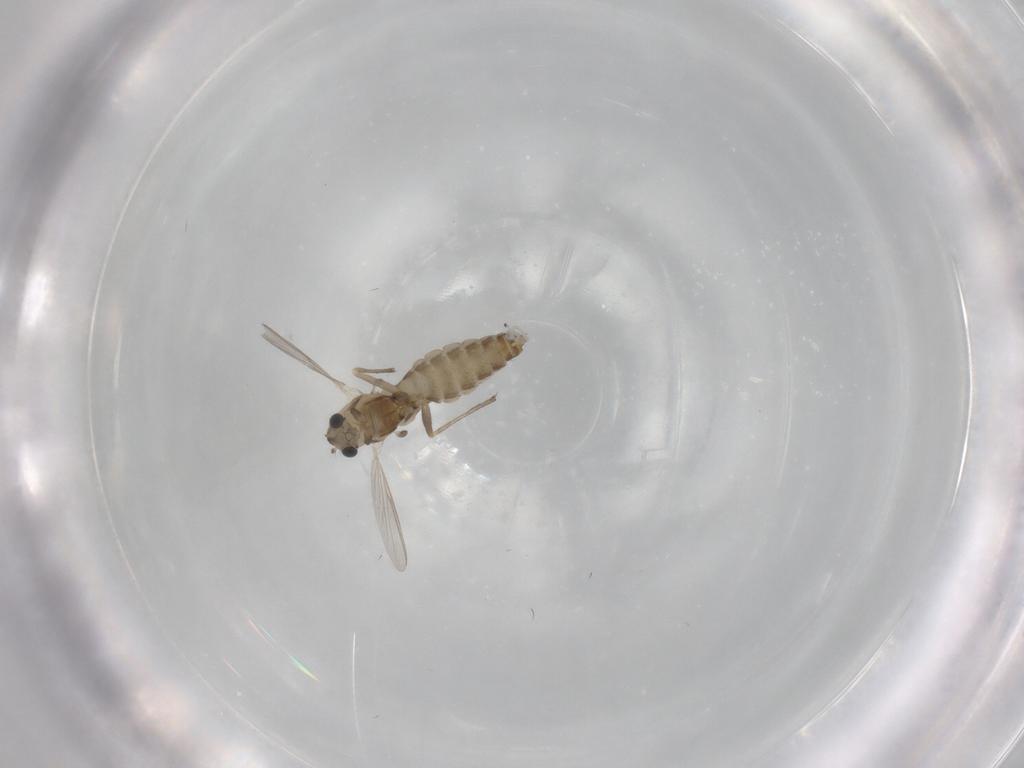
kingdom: Animalia
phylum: Arthropoda
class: Insecta
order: Diptera
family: Chironomidae
